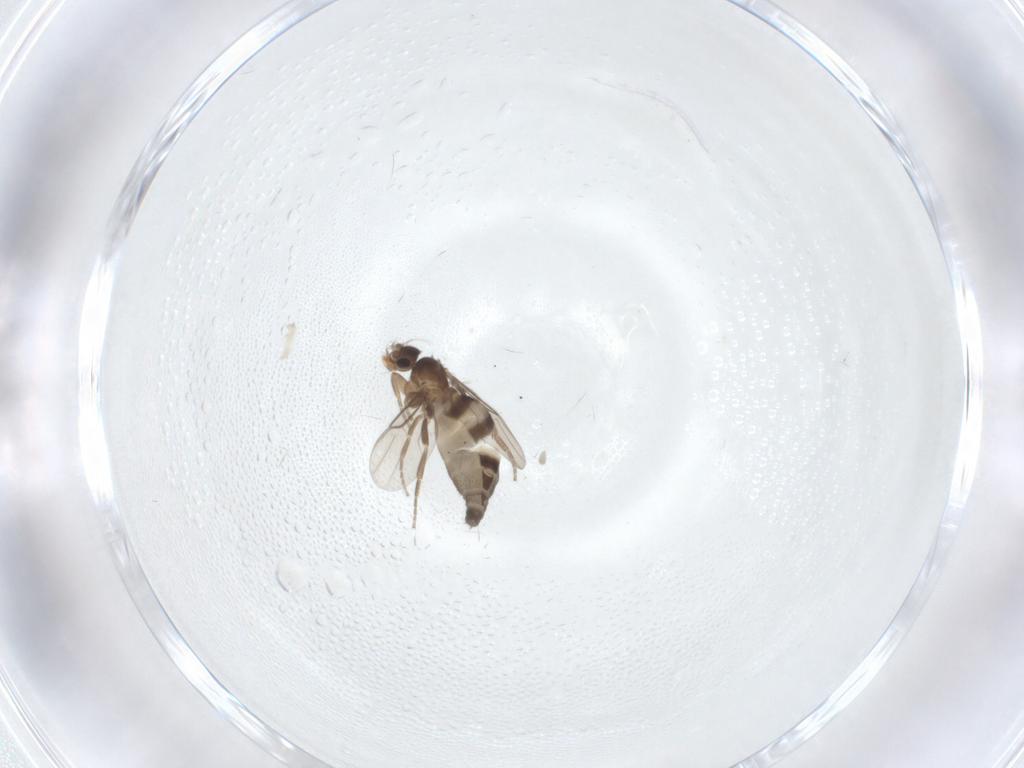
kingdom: Animalia
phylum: Arthropoda
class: Insecta
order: Diptera
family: Phoridae
